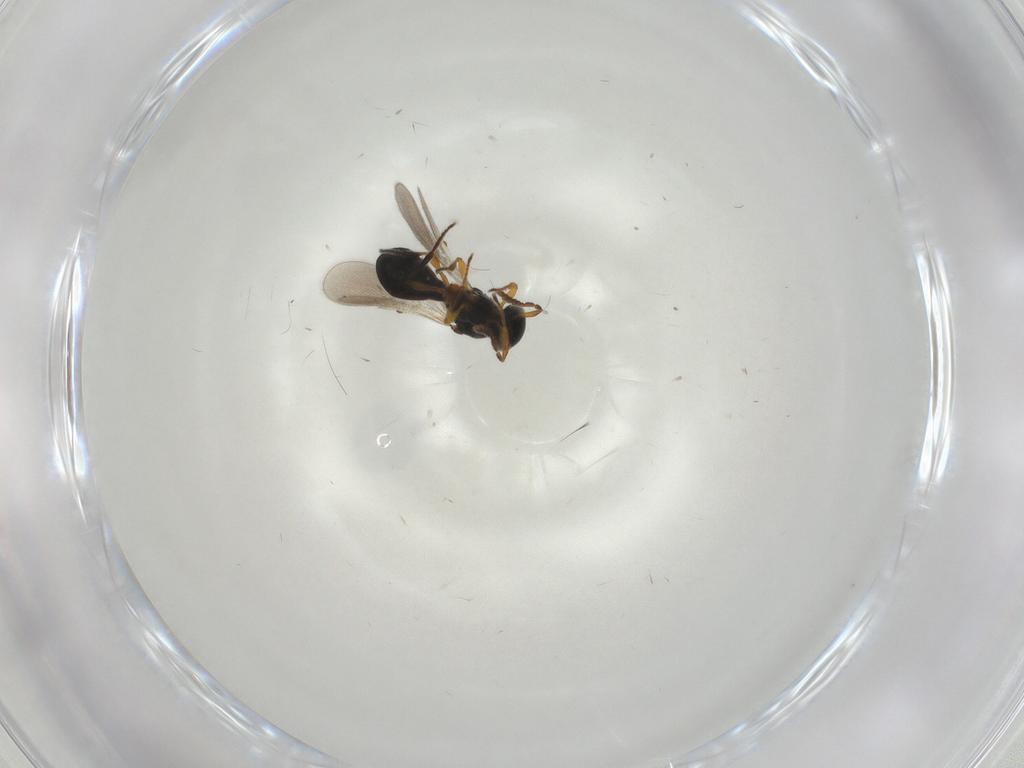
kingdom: Animalia
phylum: Arthropoda
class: Insecta
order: Hymenoptera
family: Platygastridae
